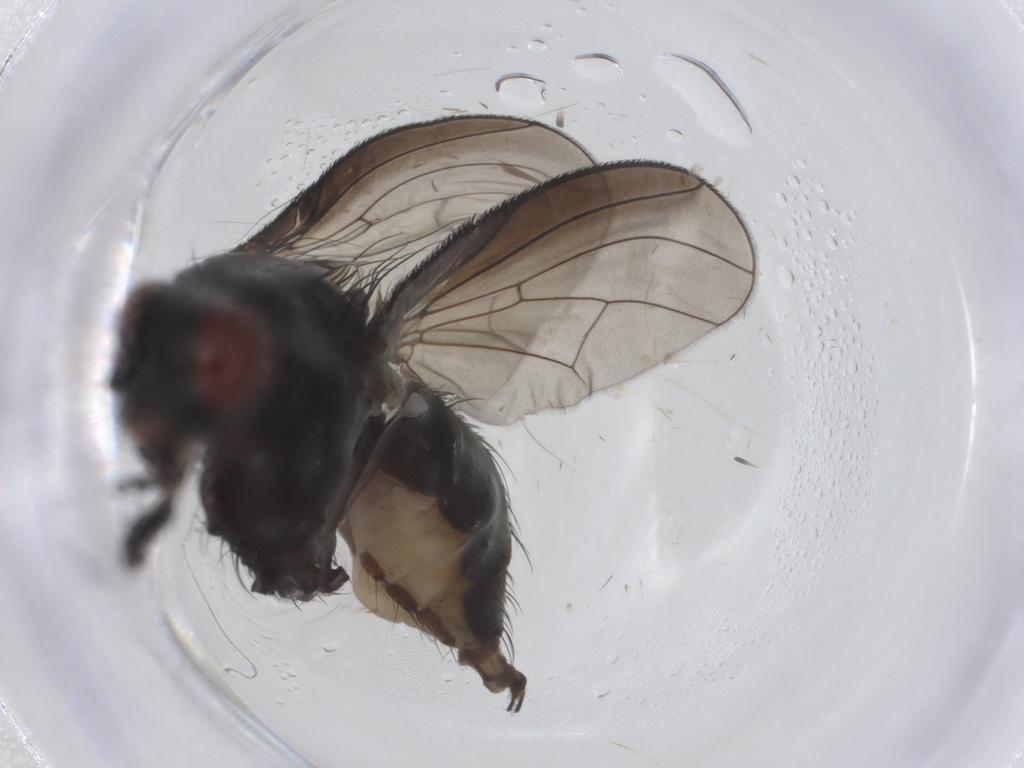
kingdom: Animalia
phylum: Arthropoda
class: Insecta
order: Diptera
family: Anthomyiidae
